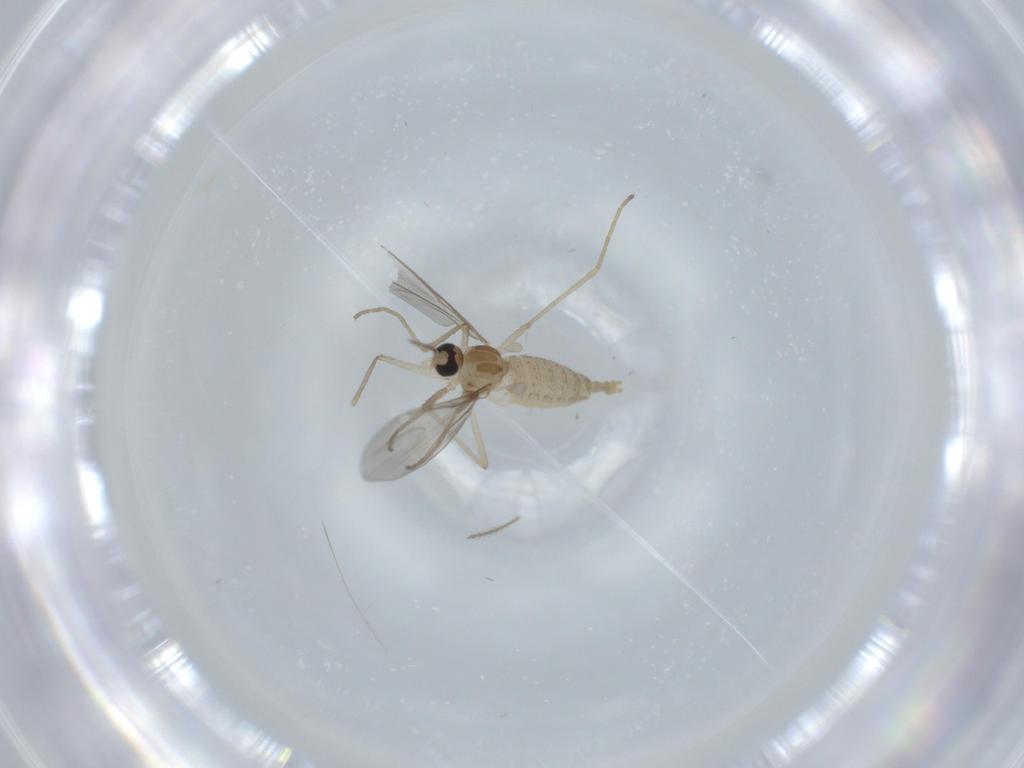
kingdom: Animalia
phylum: Arthropoda
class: Insecta
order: Diptera
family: Cecidomyiidae
